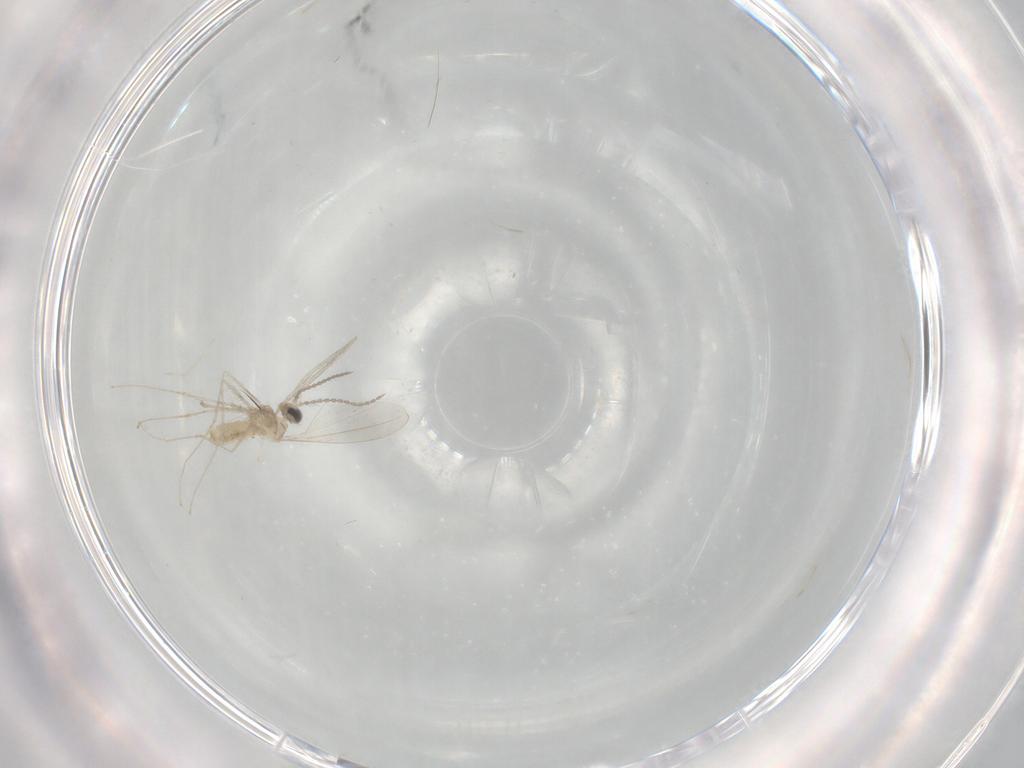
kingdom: Animalia
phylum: Arthropoda
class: Insecta
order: Diptera
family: Cecidomyiidae
